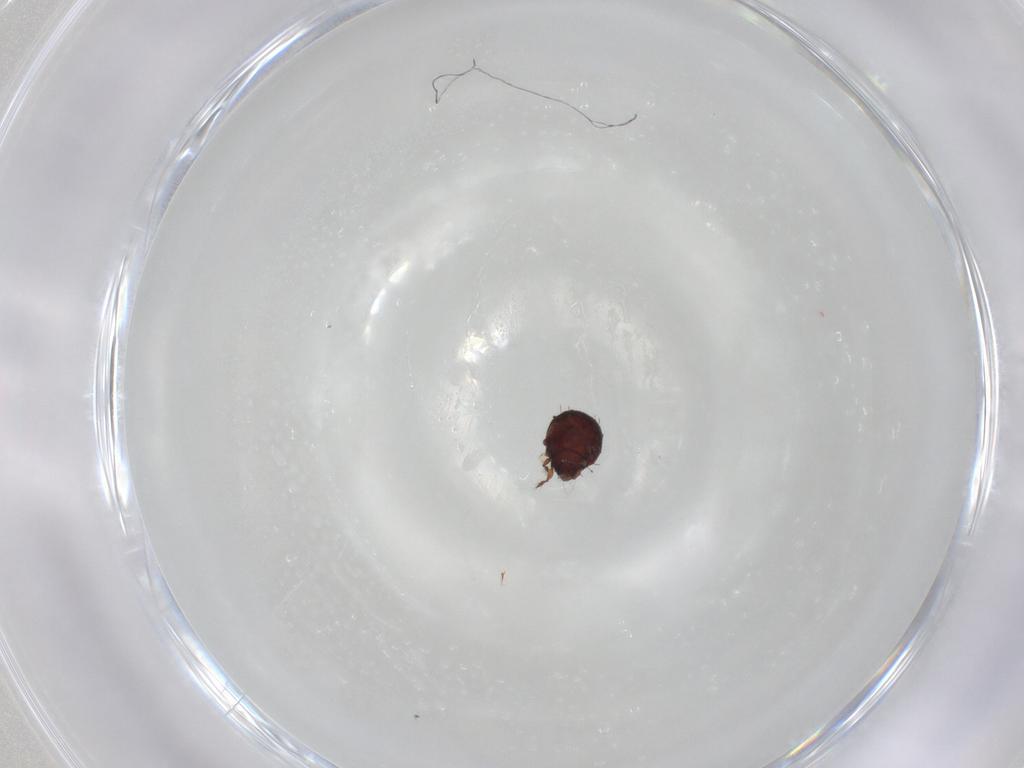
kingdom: Animalia
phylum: Arthropoda
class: Arachnida
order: Sarcoptiformes
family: Caloppiidae
